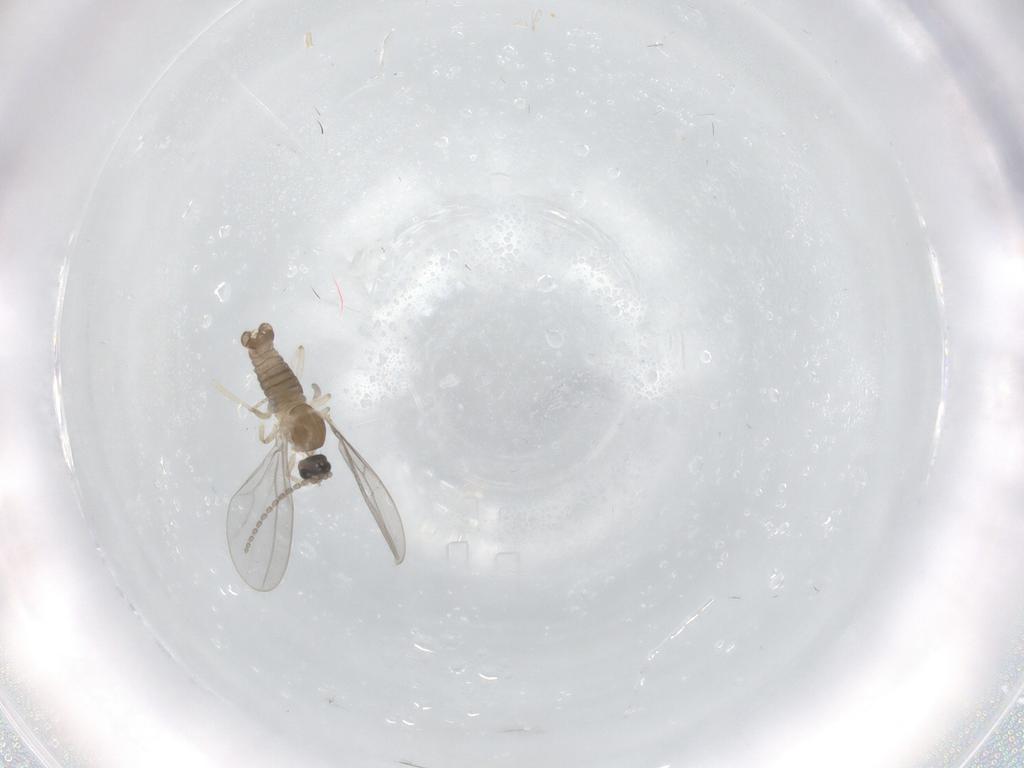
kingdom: Animalia
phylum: Arthropoda
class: Insecta
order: Diptera
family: Cecidomyiidae
